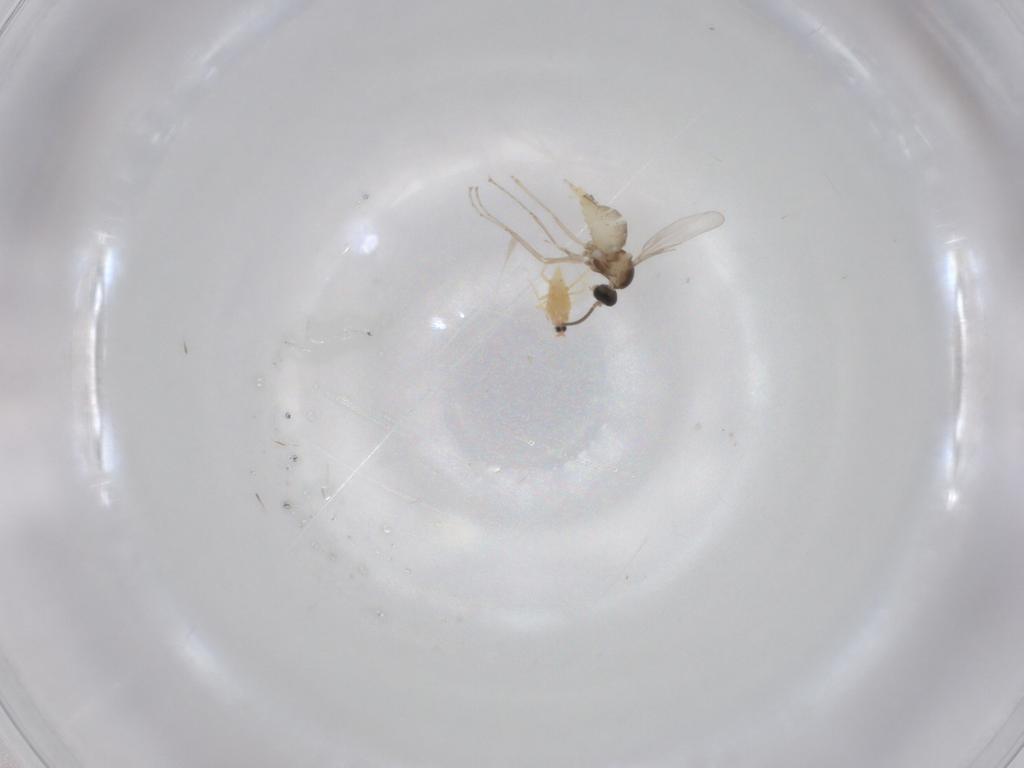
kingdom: Animalia
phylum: Arthropoda
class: Insecta
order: Diptera
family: Cecidomyiidae
